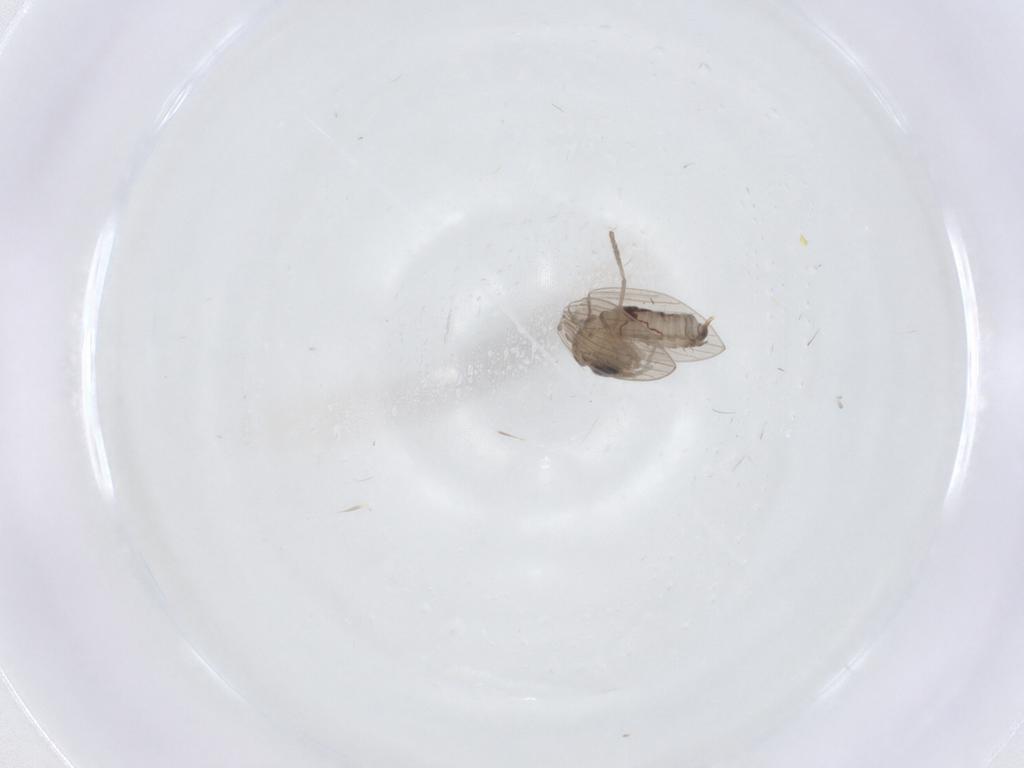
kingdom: Animalia
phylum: Arthropoda
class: Insecta
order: Diptera
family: Psychodidae
